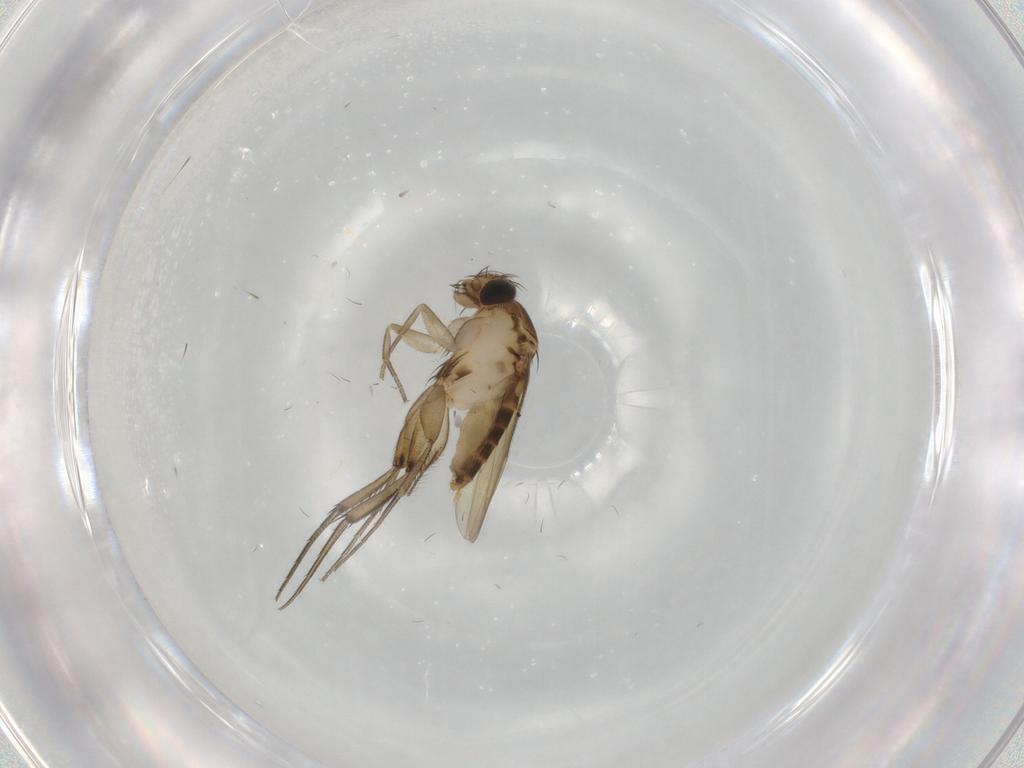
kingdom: Animalia
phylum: Arthropoda
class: Insecta
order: Diptera
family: Phoridae
